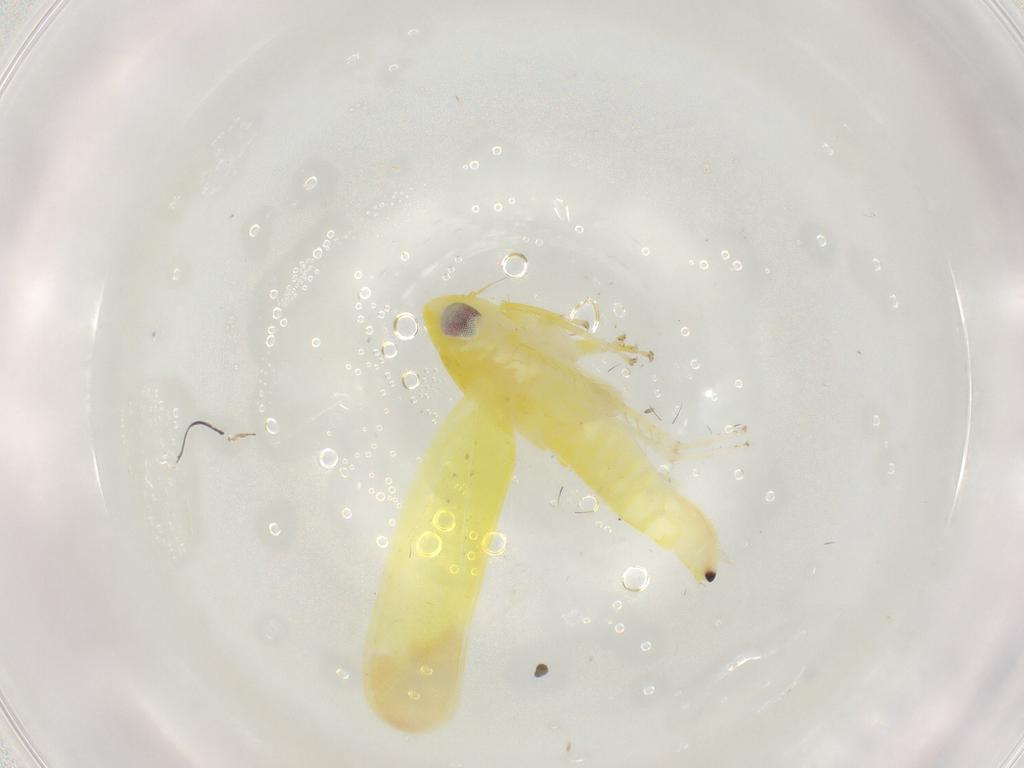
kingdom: Animalia
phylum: Arthropoda
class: Insecta
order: Hemiptera
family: Cicadellidae
